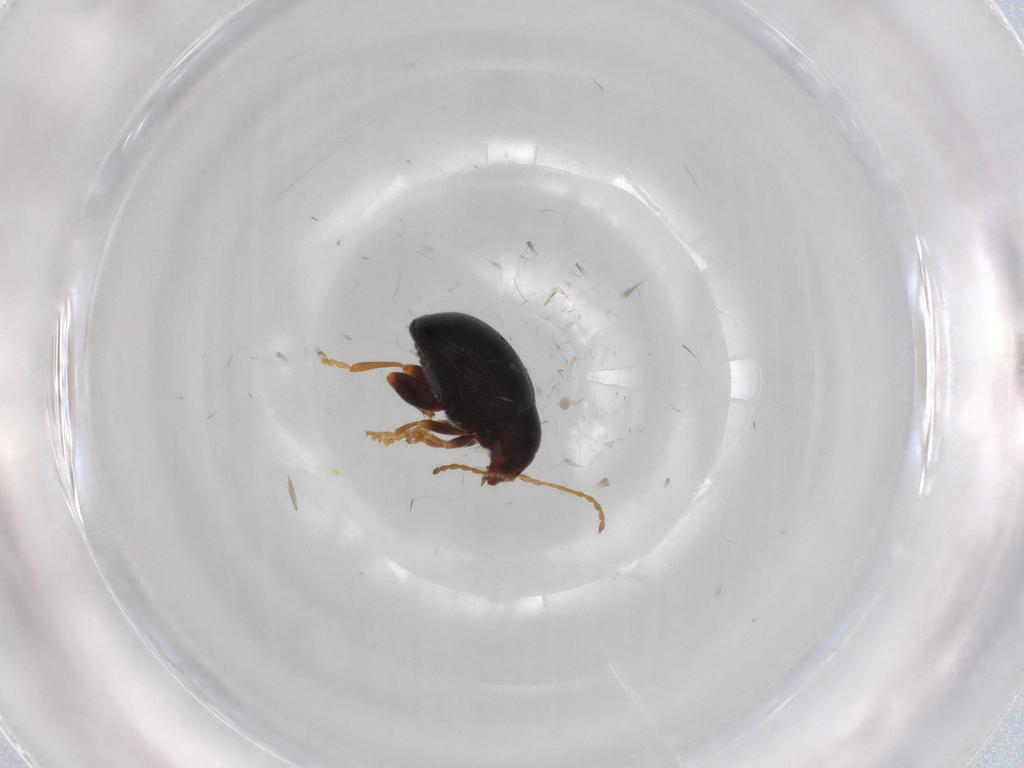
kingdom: Animalia
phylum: Arthropoda
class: Insecta
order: Coleoptera
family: Chrysomelidae
